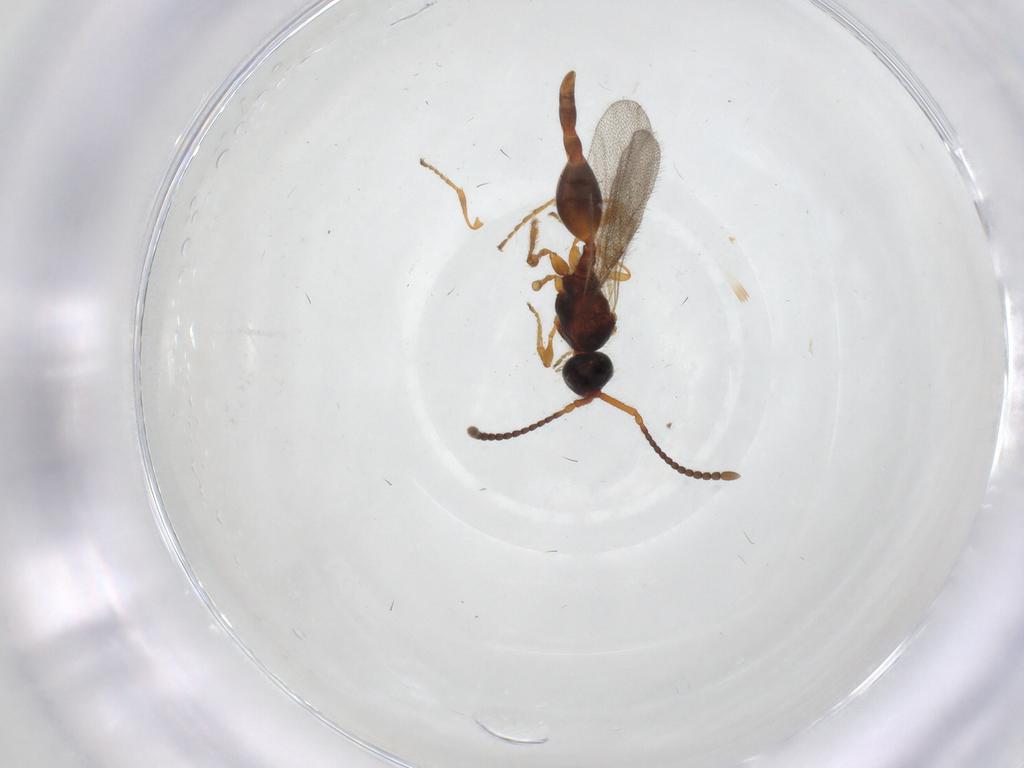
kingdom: Animalia
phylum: Arthropoda
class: Insecta
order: Hymenoptera
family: Diapriidae
